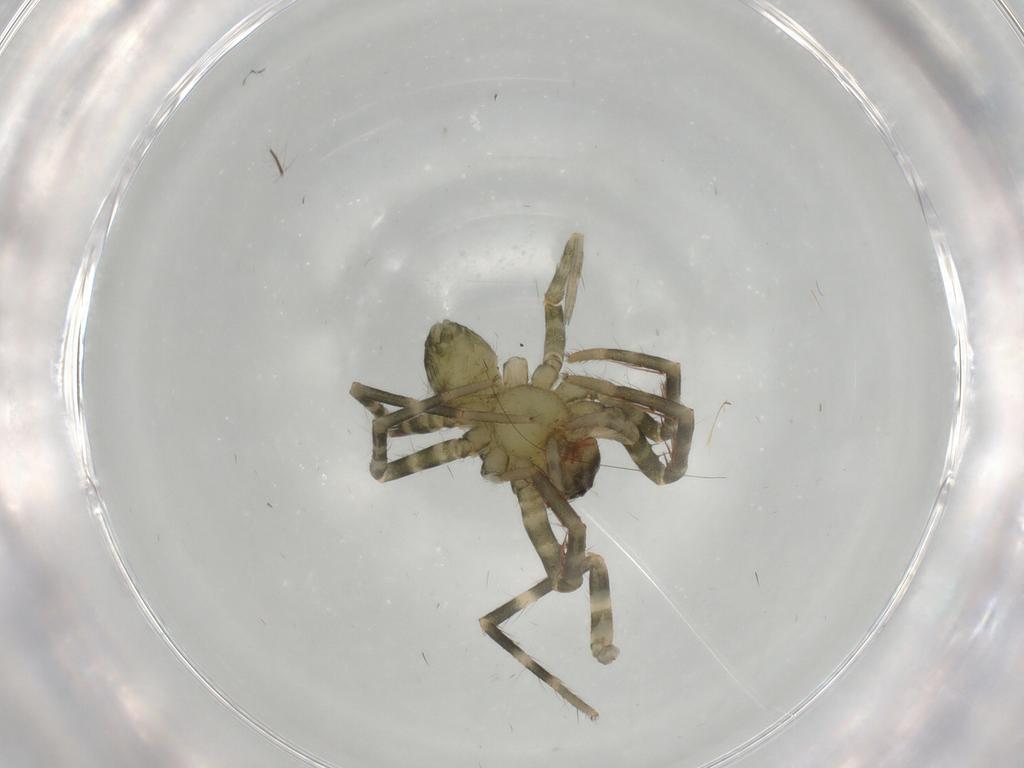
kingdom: Animalia
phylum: Arthropoda
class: Arachnida
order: Araneae
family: Ctenidae
